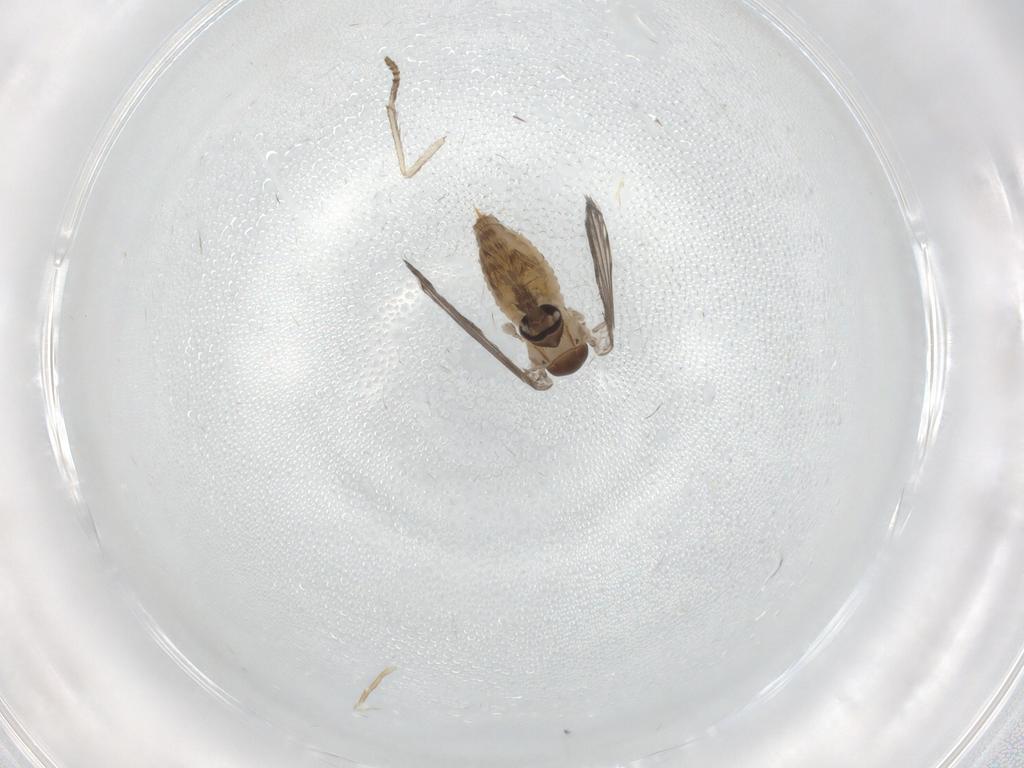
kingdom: Animalia
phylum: Arthropoda
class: Insecta
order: Diptera
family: Psychodidae
